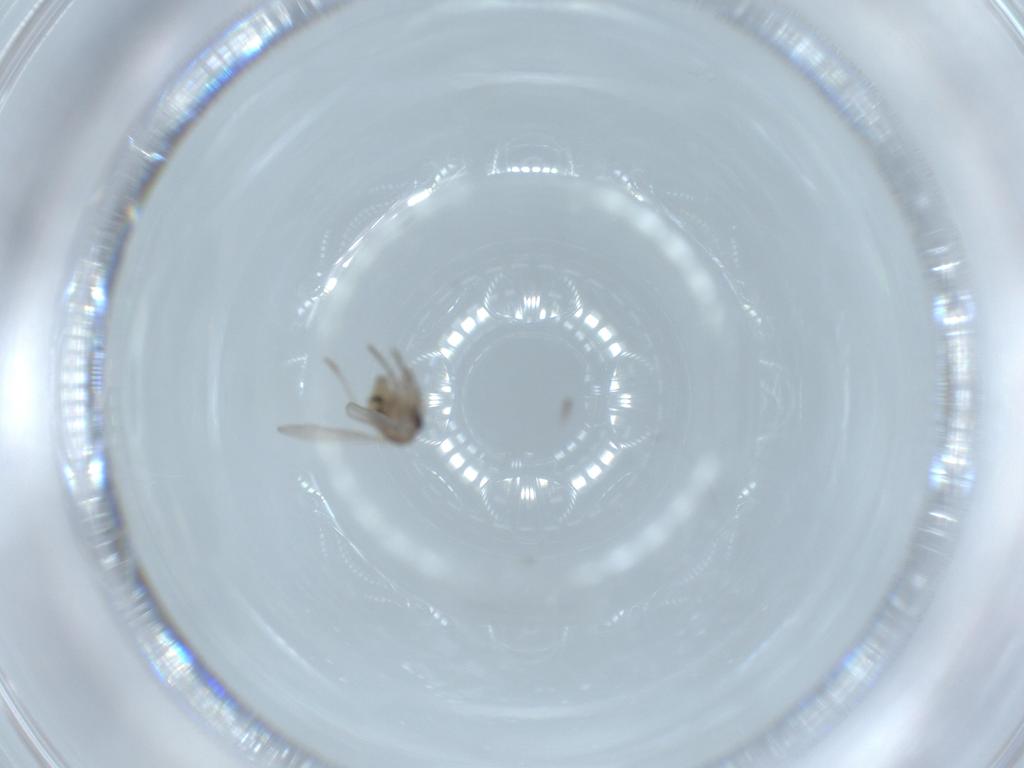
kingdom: Animalia
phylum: Arthropoda
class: Insecta
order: Diptera
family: Psychodidae
